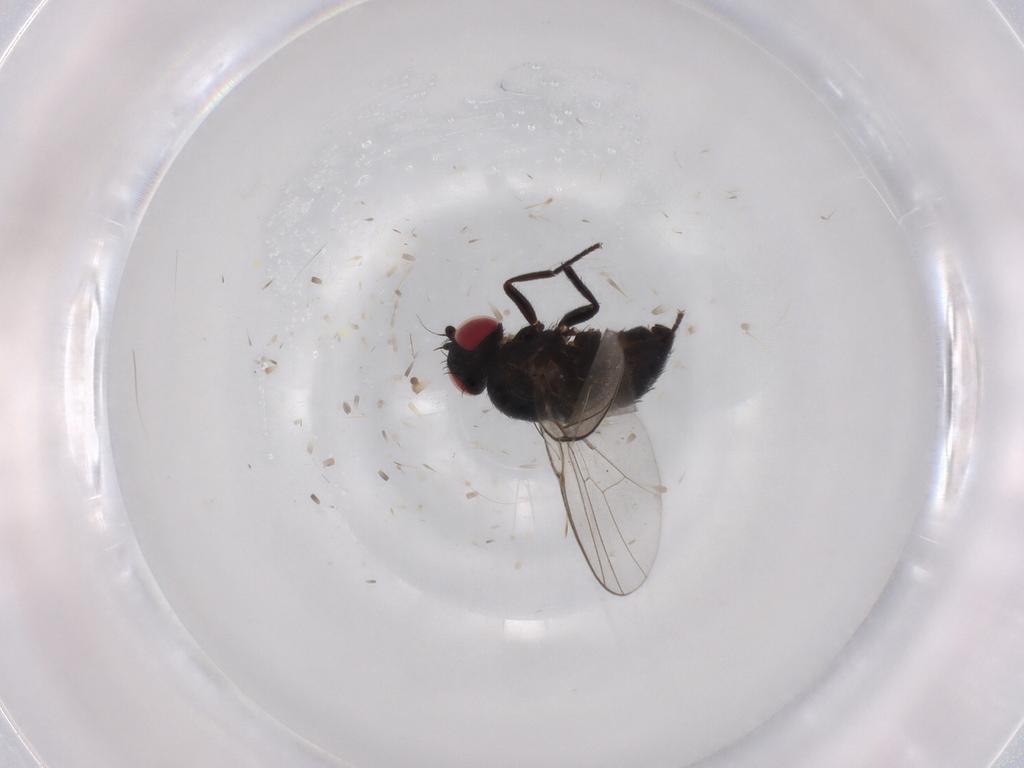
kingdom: Animalia
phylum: Arthropoda
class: Insecta
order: Diptera
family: Agromyzidae
